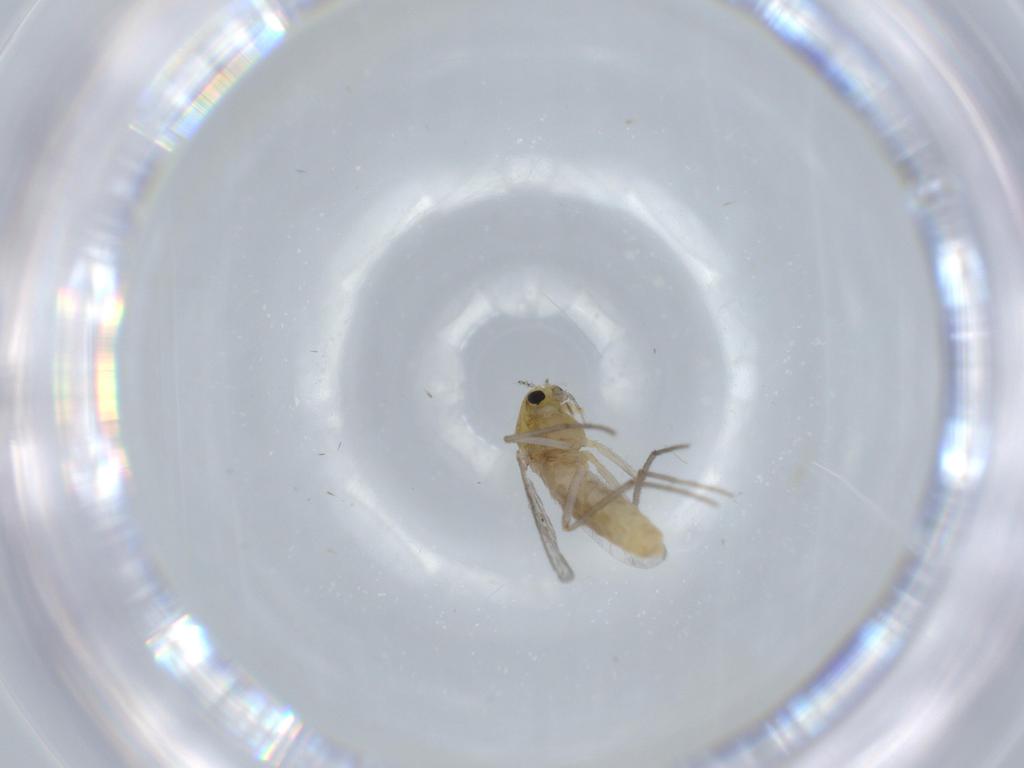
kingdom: Animalia
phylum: Arthropoda
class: Insecta
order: Diptera
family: Chironomidae
